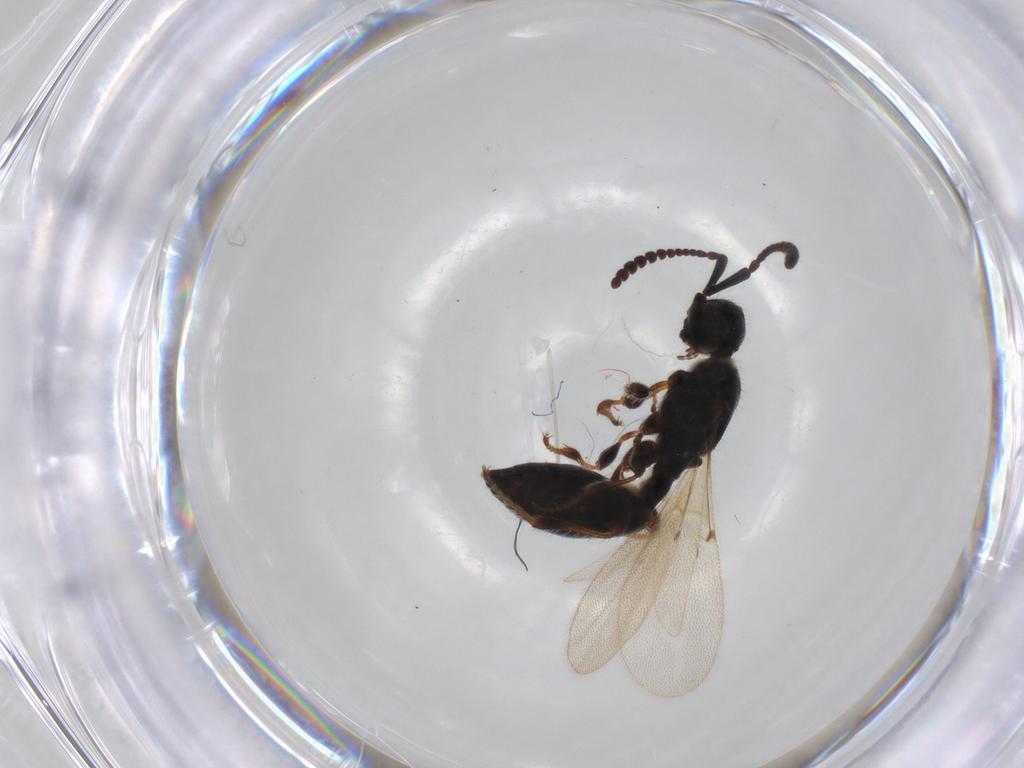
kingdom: Animalia
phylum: Arthropoda
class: Insecta
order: Hymenoptera
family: Diapriidae
